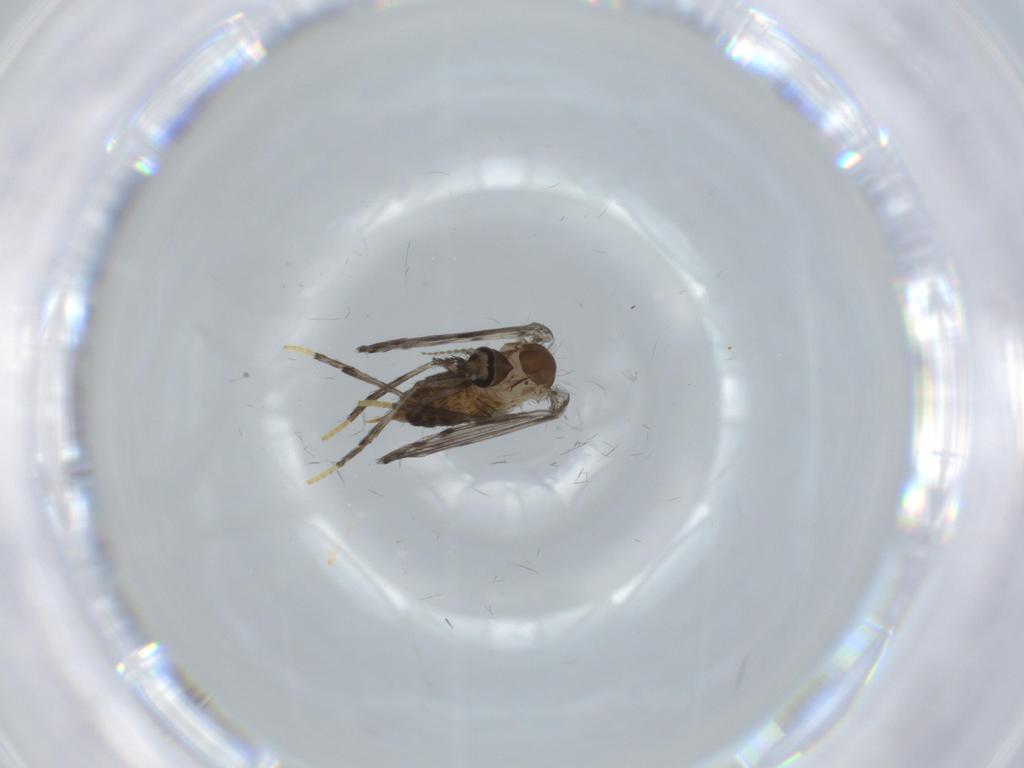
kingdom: Animalia
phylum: Arthropoda
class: Insecta
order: Diptera
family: Cecidomyiidae
